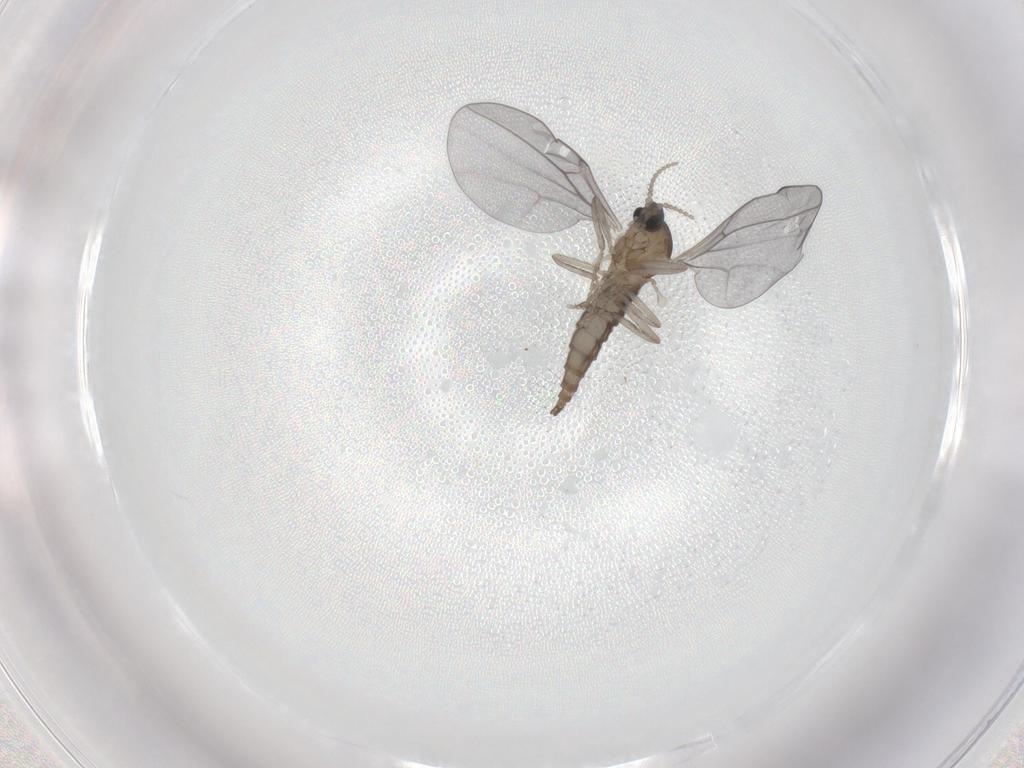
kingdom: Animalia
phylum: Arthropoda
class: Insecta
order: Diptera
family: Cecidomyiidae
